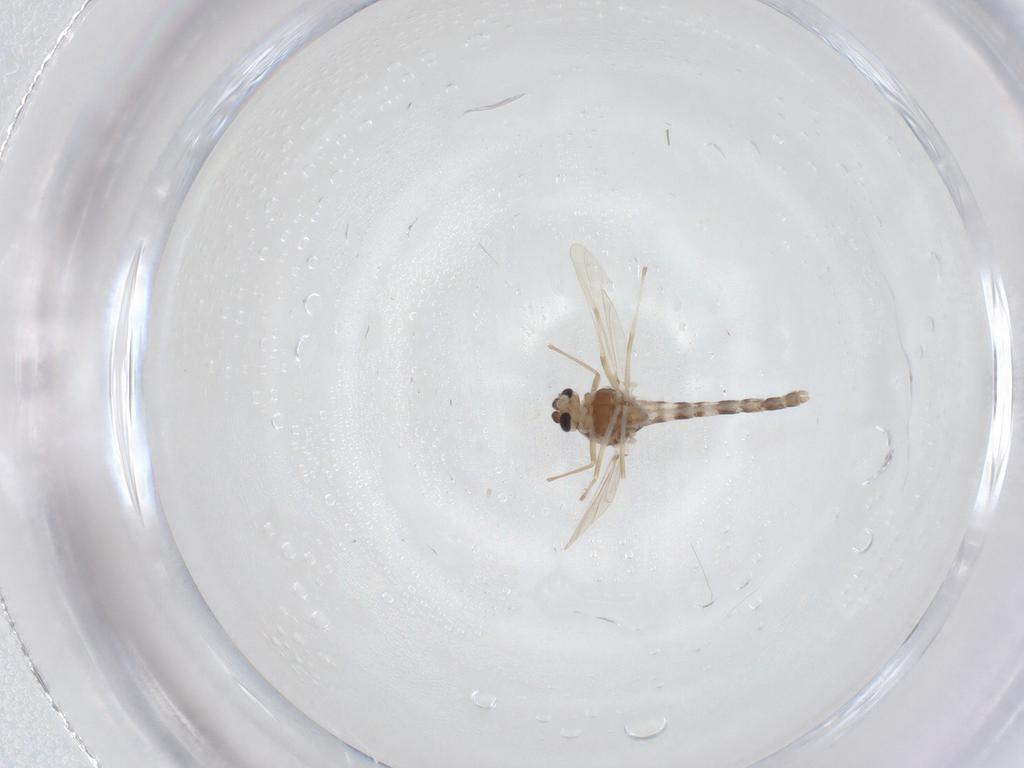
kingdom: Animalia
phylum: Arthropoda
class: Insecta
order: Diptera
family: Chironomidae
